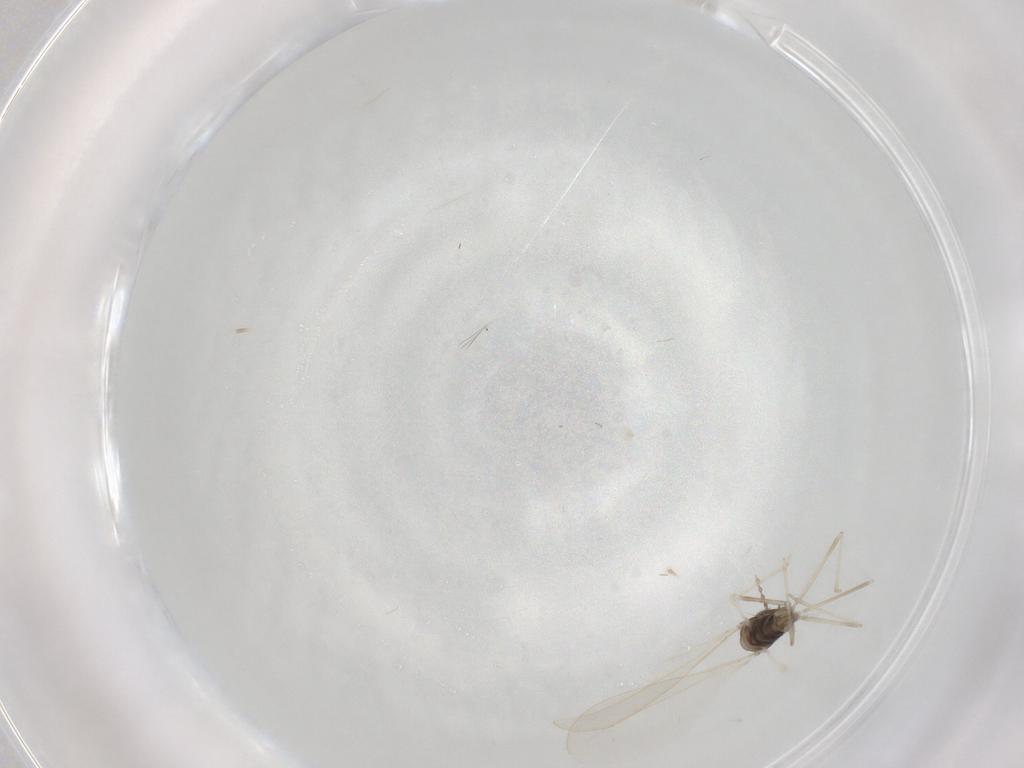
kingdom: Animalia
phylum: Arthropoda
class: Insecta
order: Diptera
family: Cecidomyiidae
